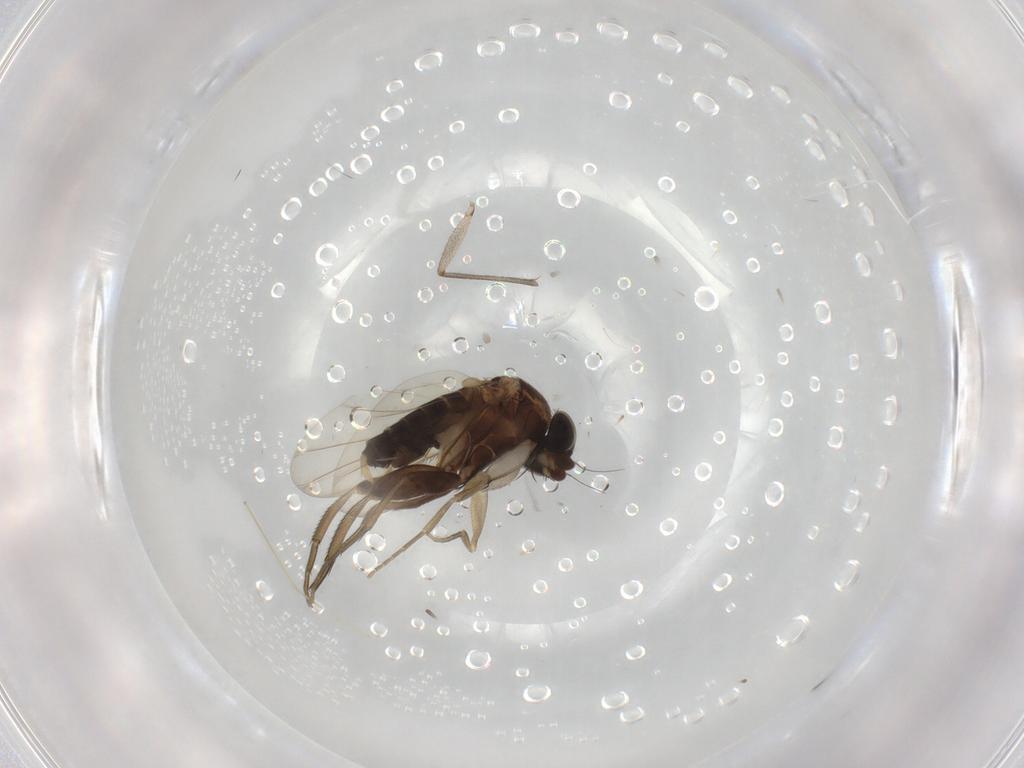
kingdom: Animalia
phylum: Arthropoda
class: Insecta
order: Diptera
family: Phoridae
